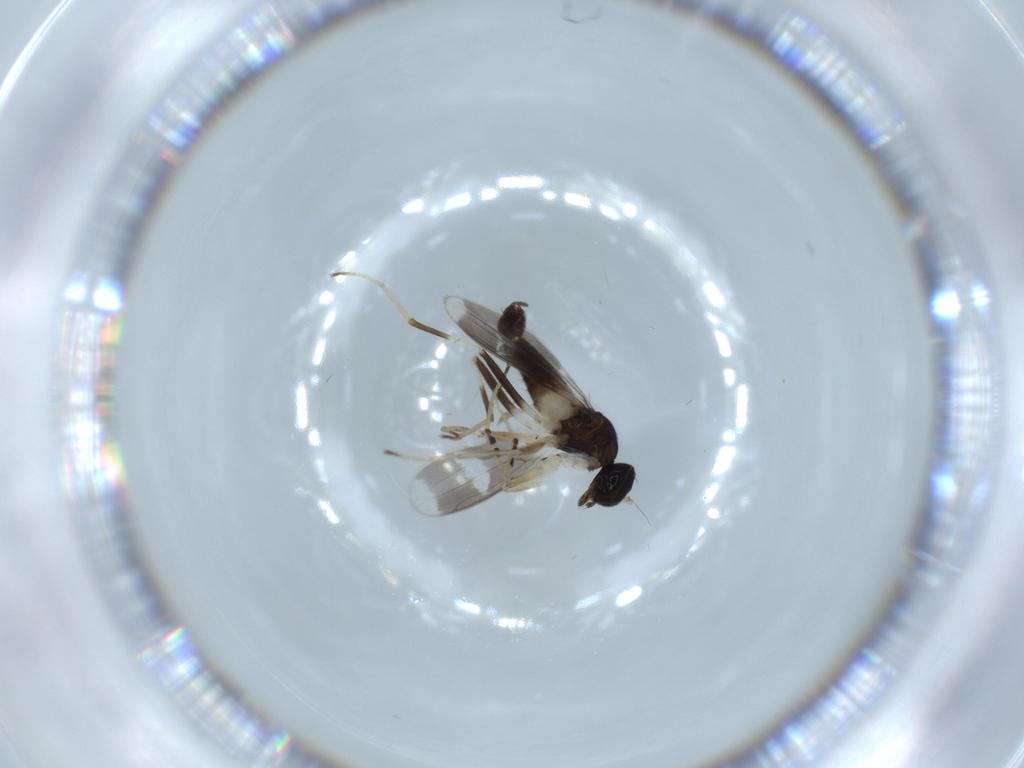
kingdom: Animalia
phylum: Arthropoda
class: Insecta
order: Diptera
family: Hybotidae
